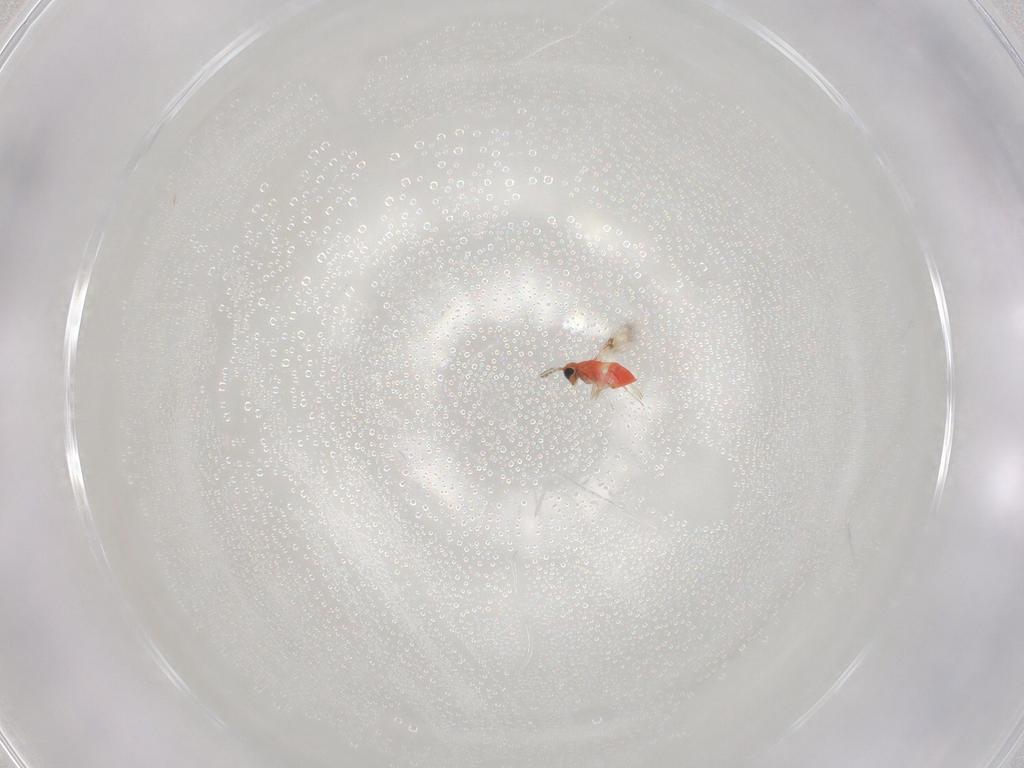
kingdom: Animalia
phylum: Arthropoda
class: Insecta
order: Hymenoptera
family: Trichogrammatidae
